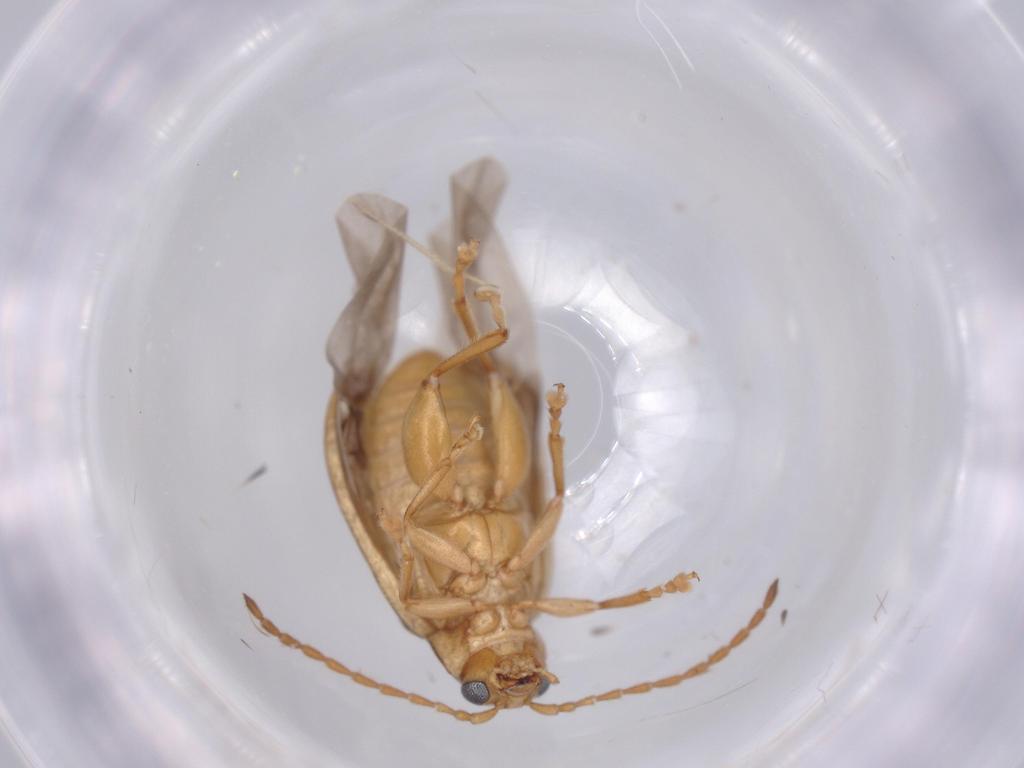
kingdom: Animalia
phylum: Arthropoda
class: Insecta
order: Coleoptera
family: Chrysomelidae
